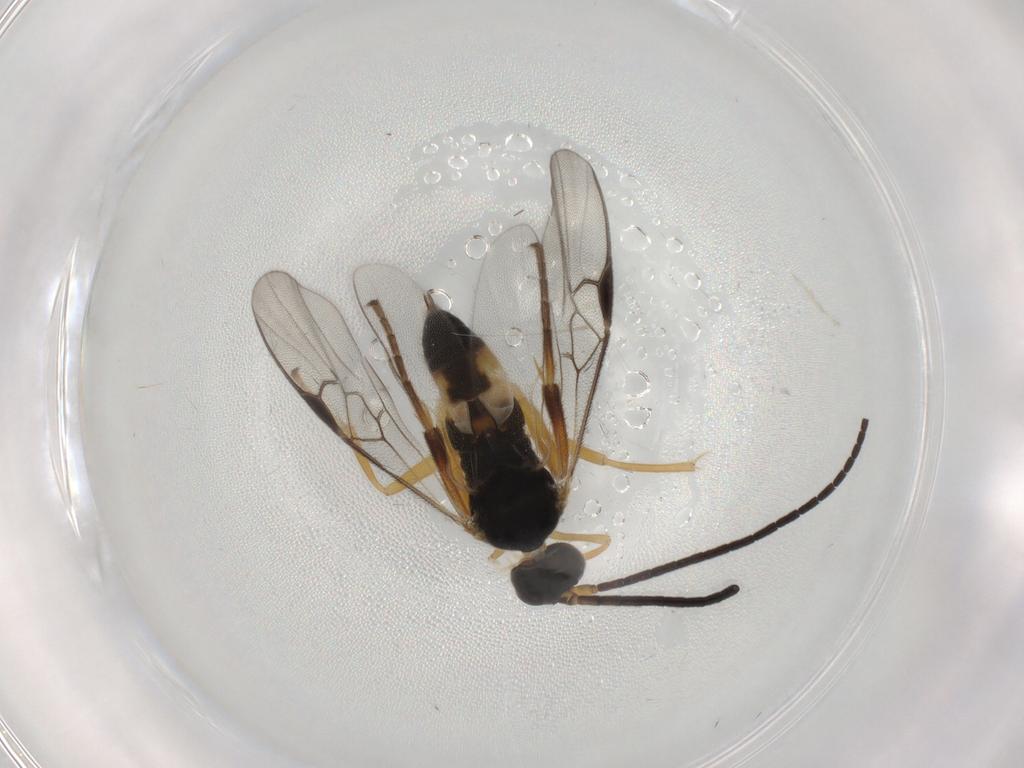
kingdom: Animalia
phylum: Arthropoda
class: Insecta
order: Hymenoptera
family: Braconidae
